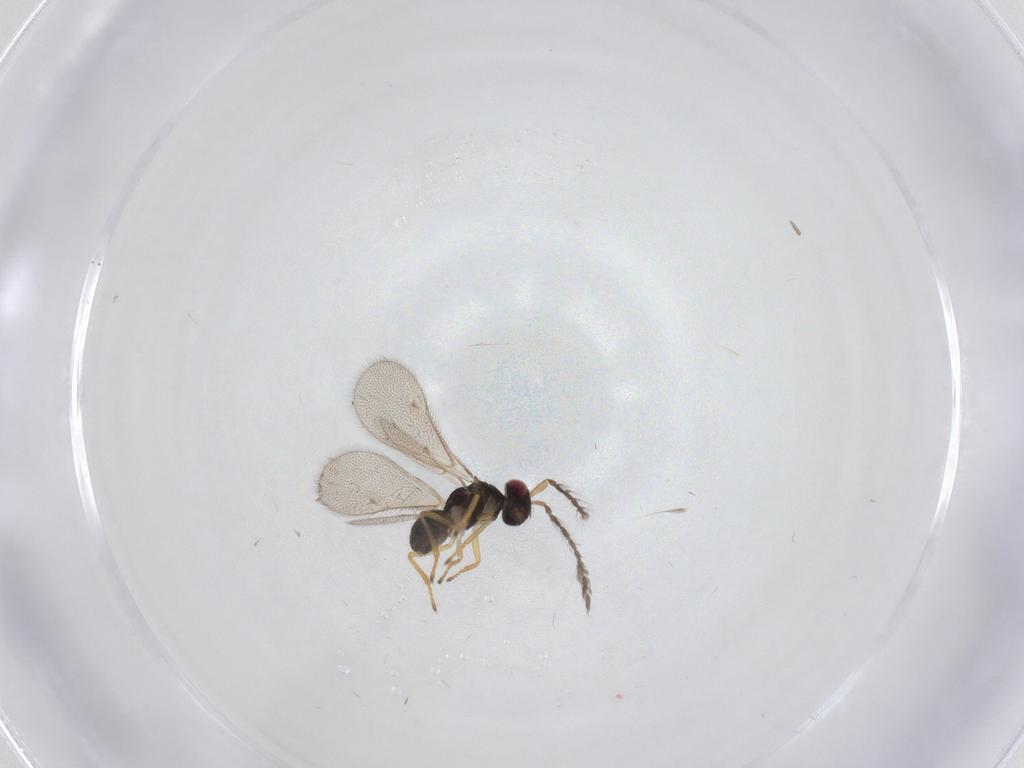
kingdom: Animalia
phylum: Arthropoda
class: Insecta
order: Hymenoptera
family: Eulophidae
